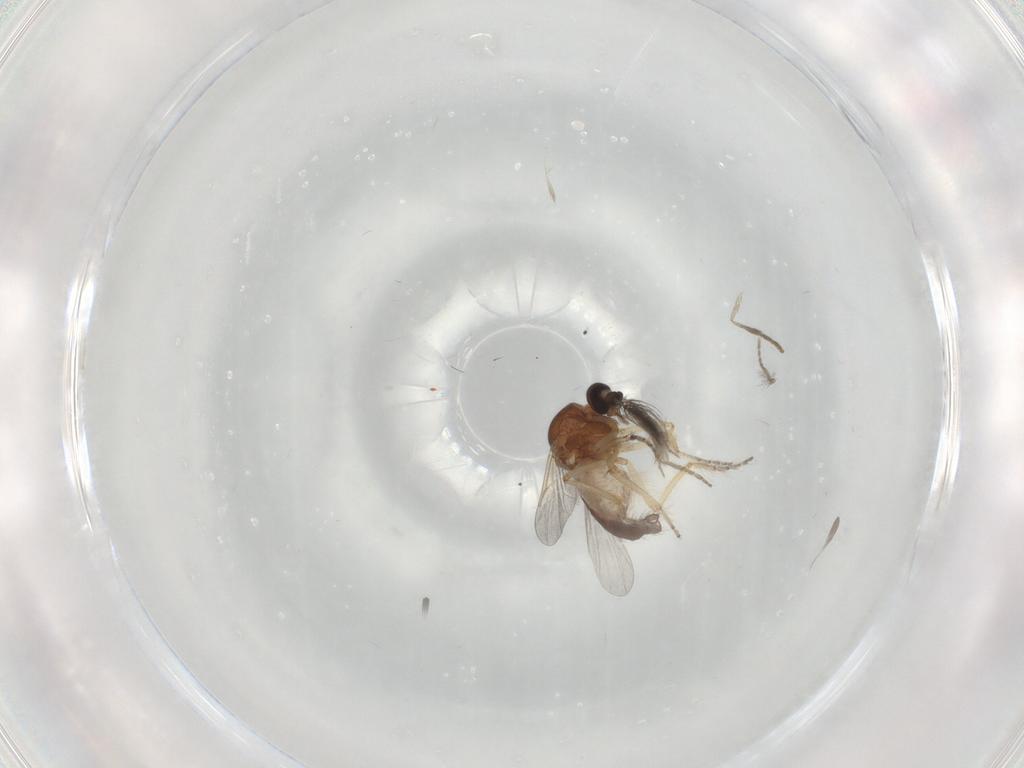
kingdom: Animalia
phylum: Arthropoda
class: Insecta
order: Diptera
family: Ceratopogonidae
